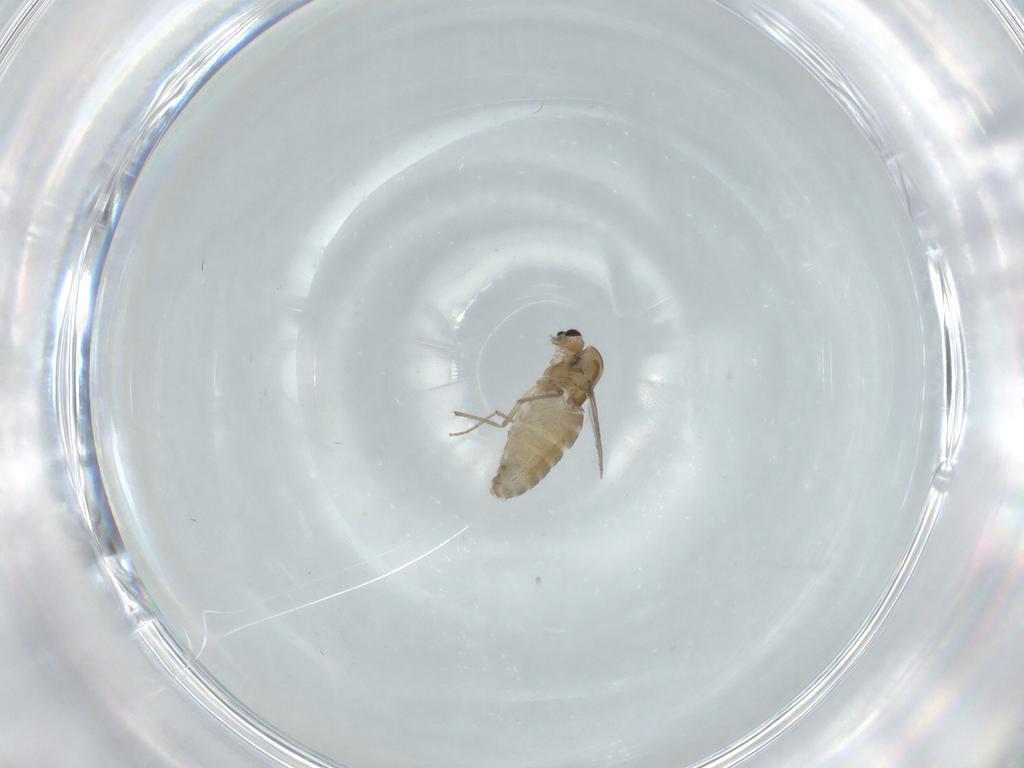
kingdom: Animalia
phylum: Arthropoda
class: Insecta
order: Diptera
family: Chironomidae
